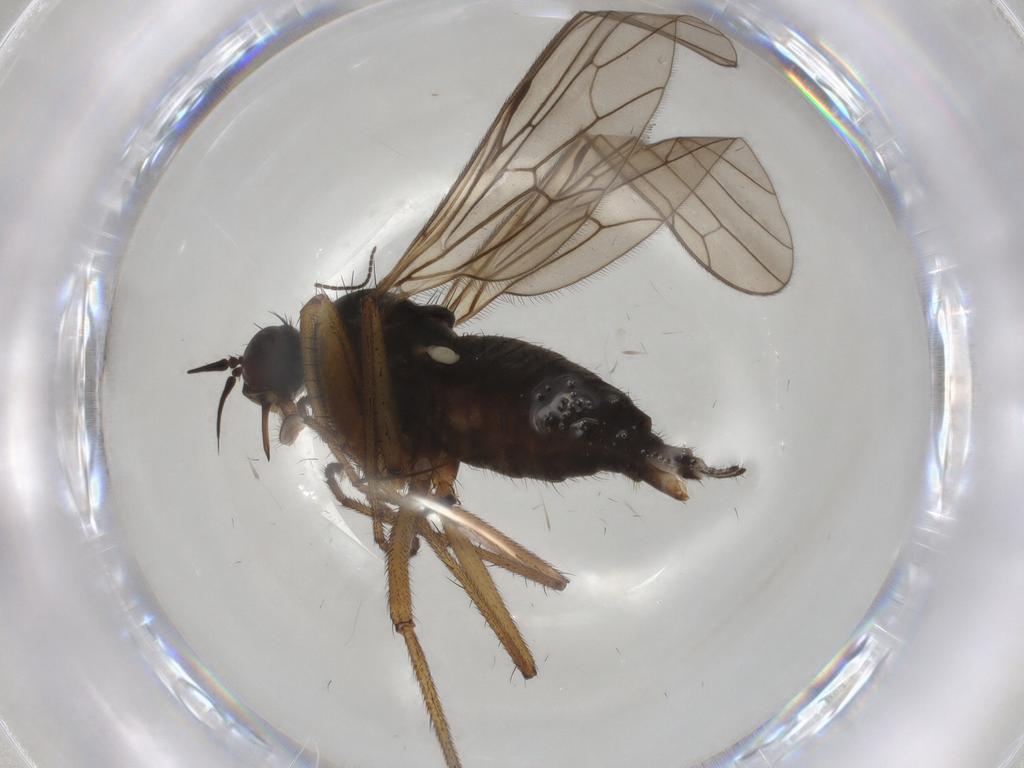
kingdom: Animalia
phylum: Arthropoda
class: Insecta
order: Diptera
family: Empididae
